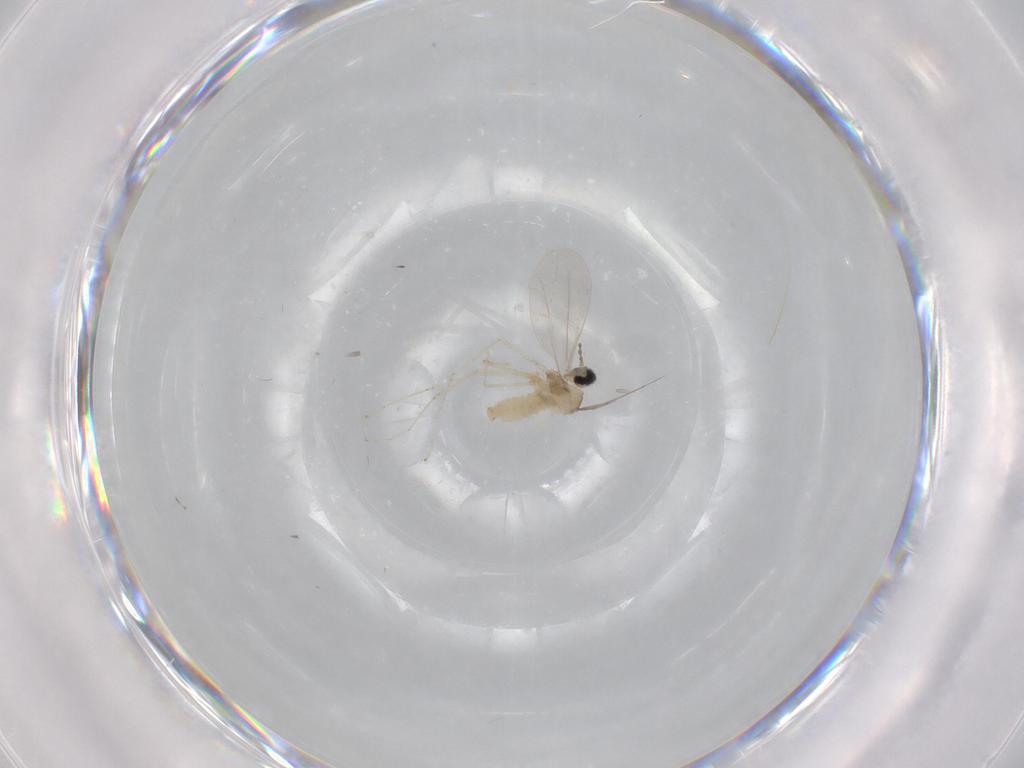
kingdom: Animalia
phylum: Arthropoda
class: Insecta
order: Diptera
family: Cecidomyiidae
